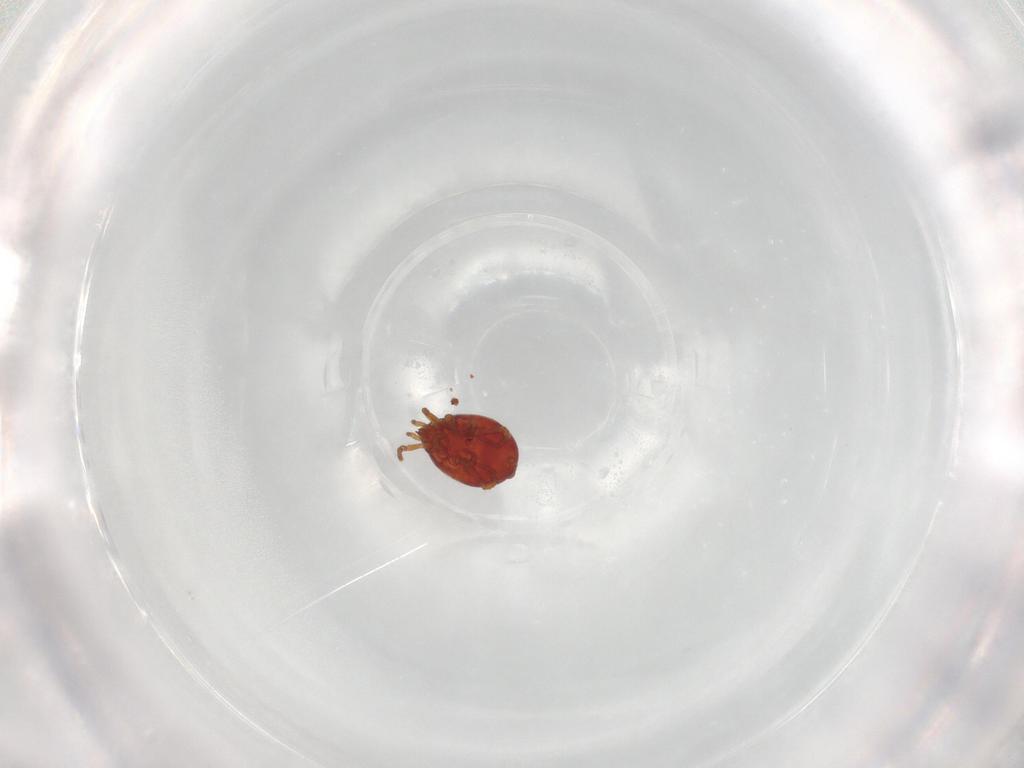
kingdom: Animalia
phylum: Arthropoda
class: Arachnida
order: Mesostigmata
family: Parasitidae
